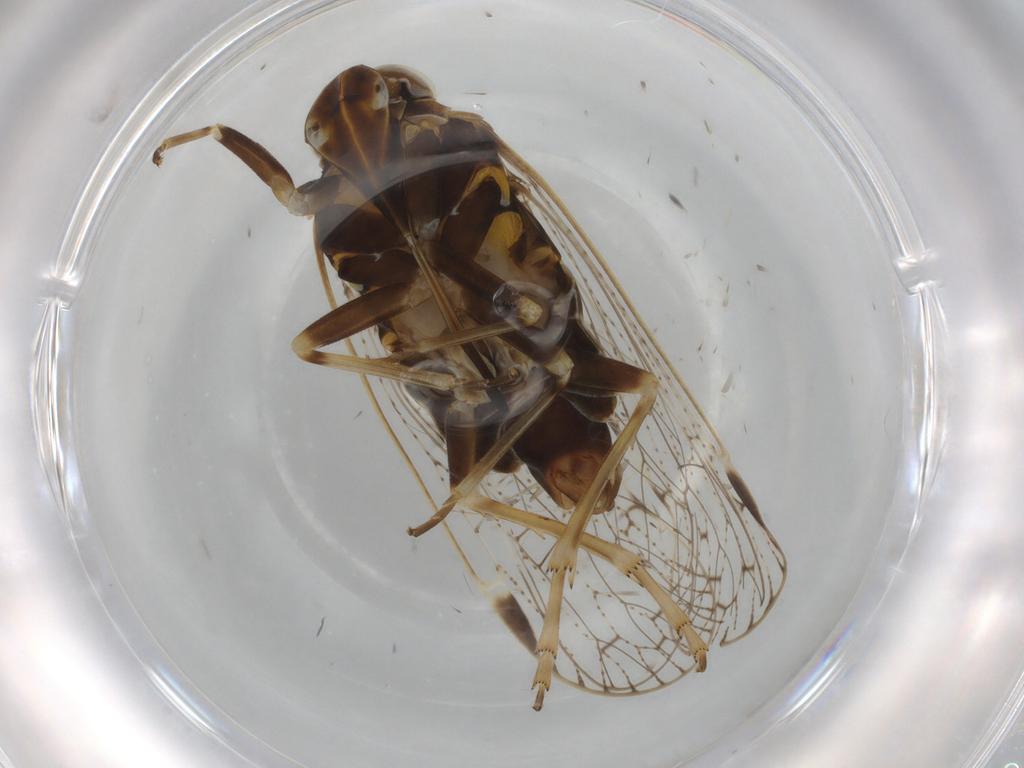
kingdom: Animalia
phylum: Arthropoda
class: Insecta
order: Hemiptera
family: Cixiidae
